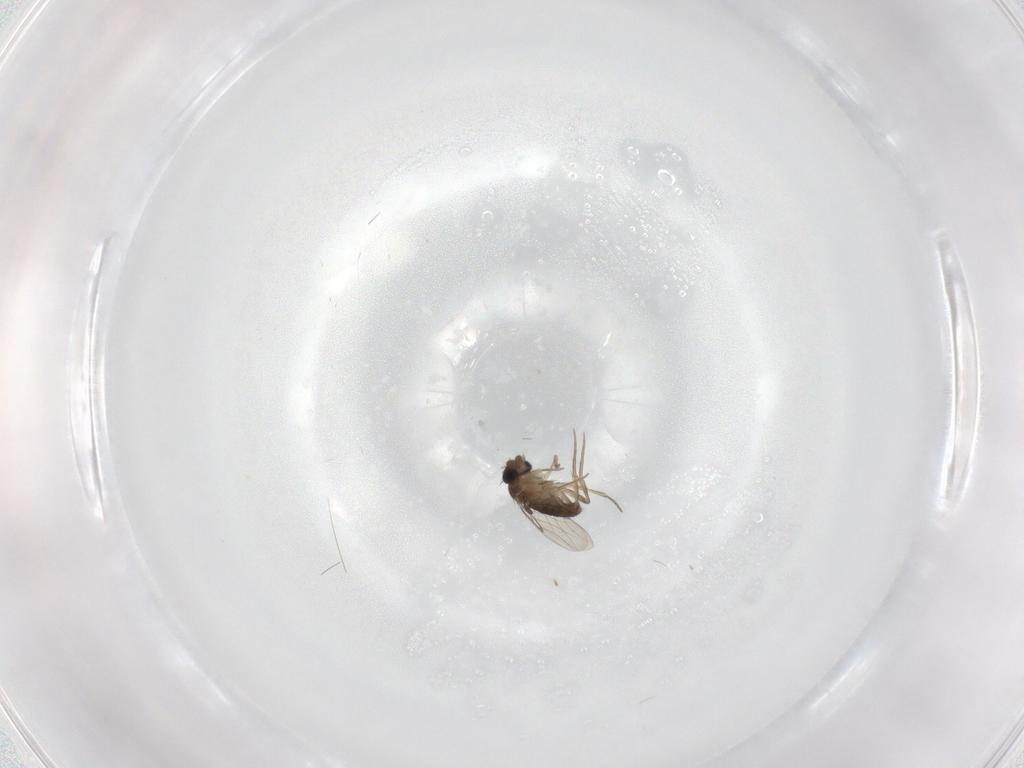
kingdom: Animalia
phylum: Arthropoda
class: Insecta
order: Diptera
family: Phoridae
